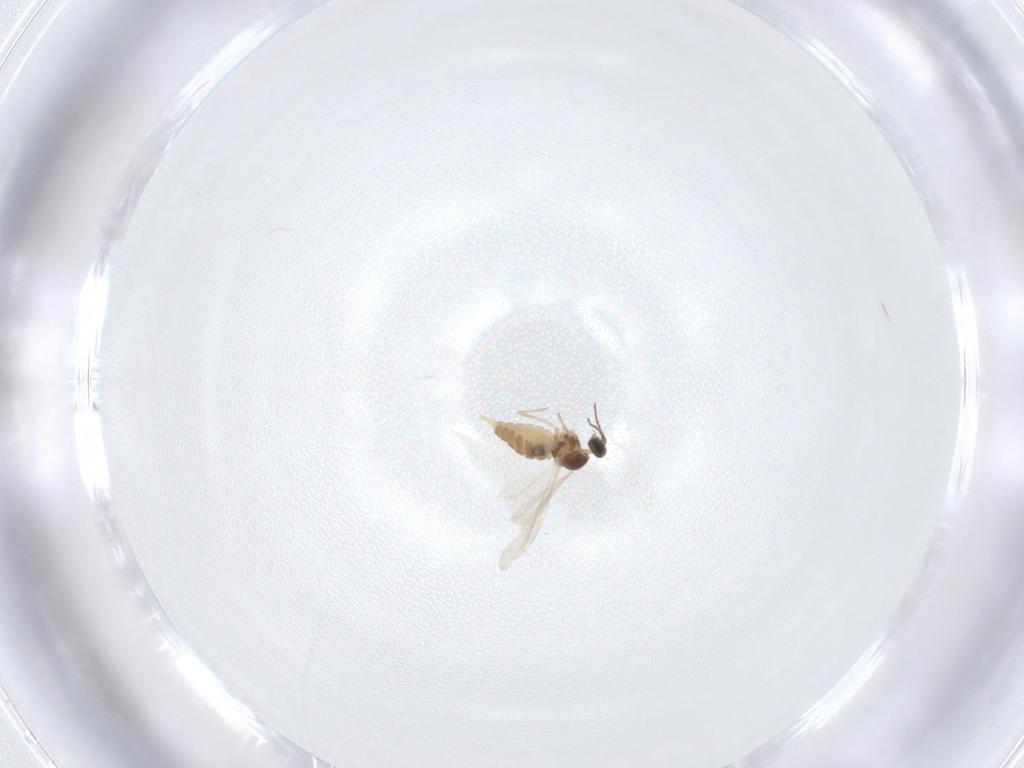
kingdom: Animalia
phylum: Arthropoda
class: Insecta
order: Diptera
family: Cecidomyiidae
